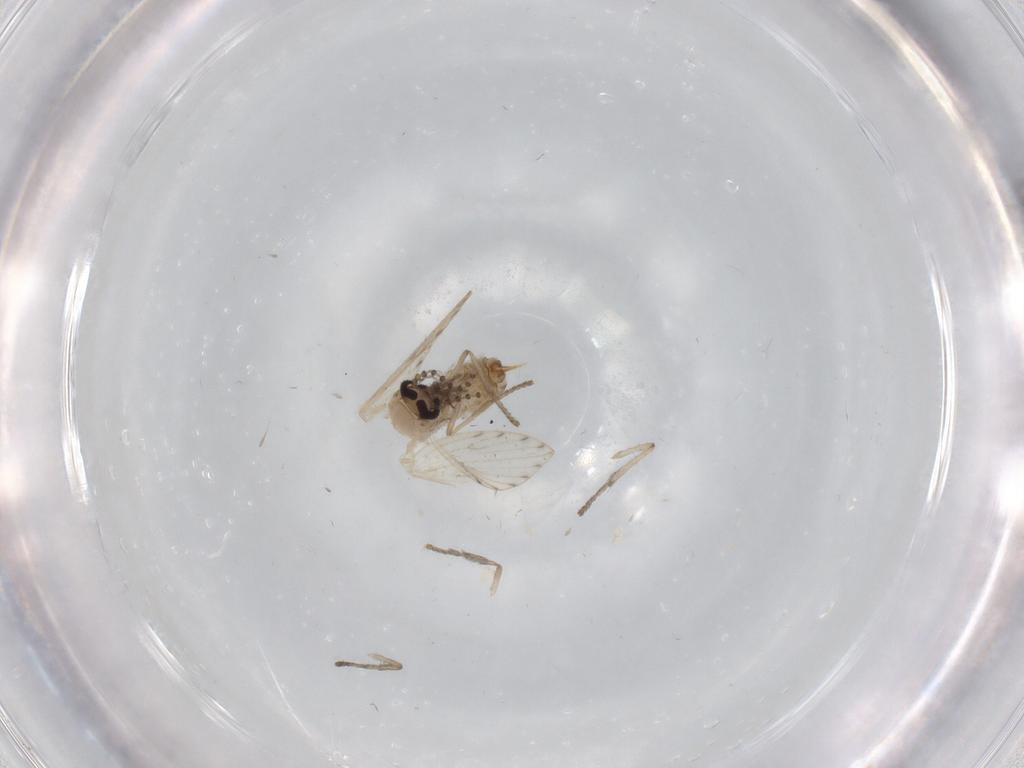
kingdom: Animalia
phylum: Arthropoda
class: Insecta
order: Diptera
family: Psychodidae
